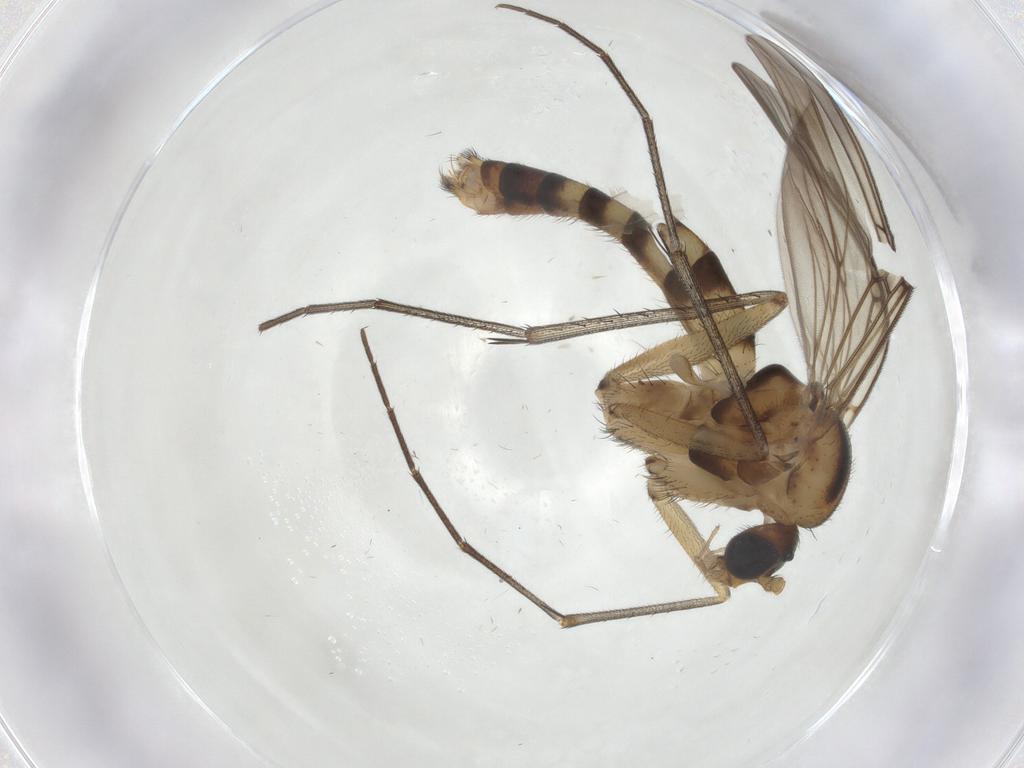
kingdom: Animalia
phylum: Arthropoda
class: Insecta
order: Diptera
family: Mycetophilidae
